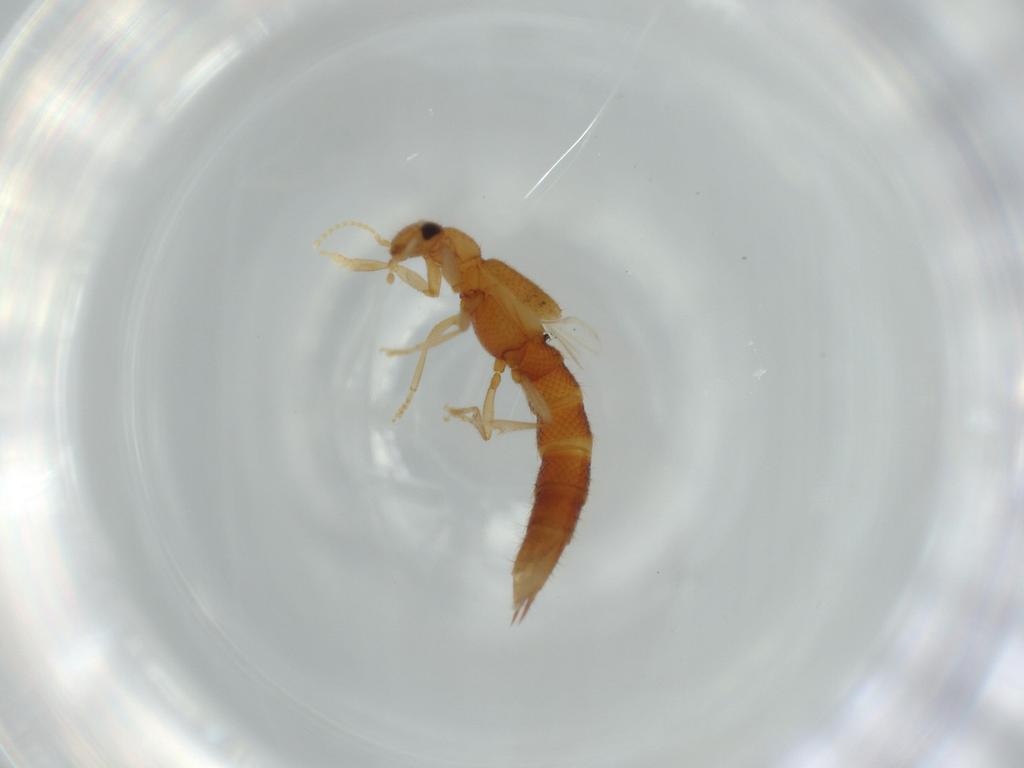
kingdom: Animalia
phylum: Arthropoda
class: Insecta
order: Coleoptera
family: Staphylinidae
